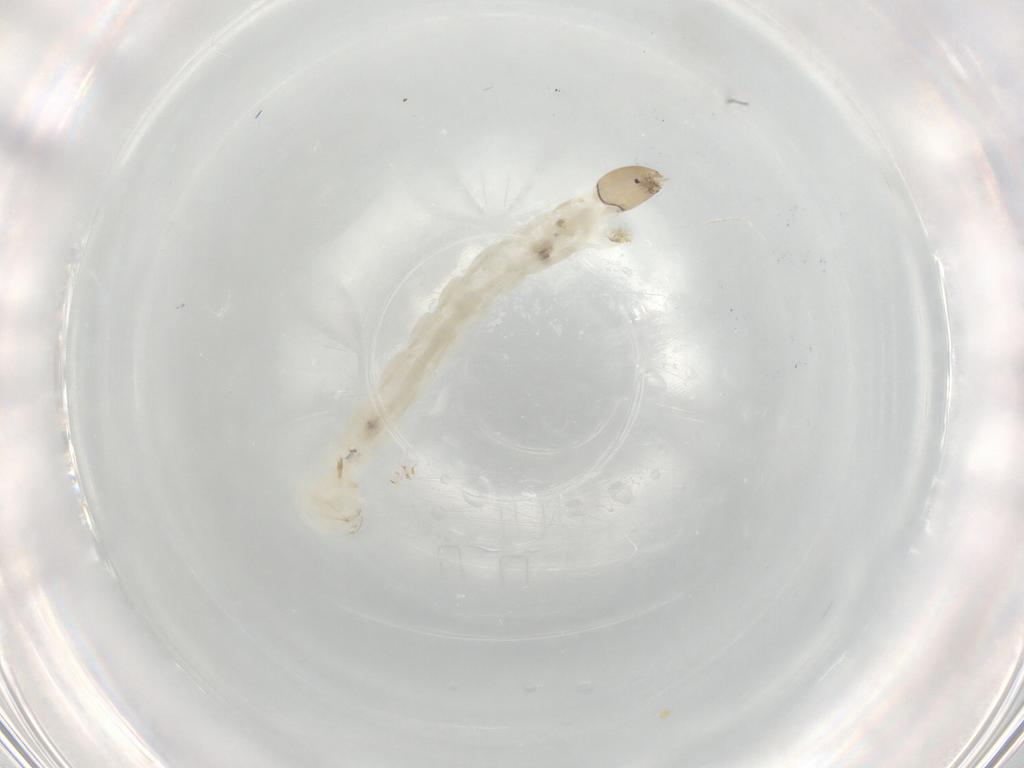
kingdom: Animalia
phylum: Arthropoda
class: Insecta
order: Diptera
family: Chironomidae
